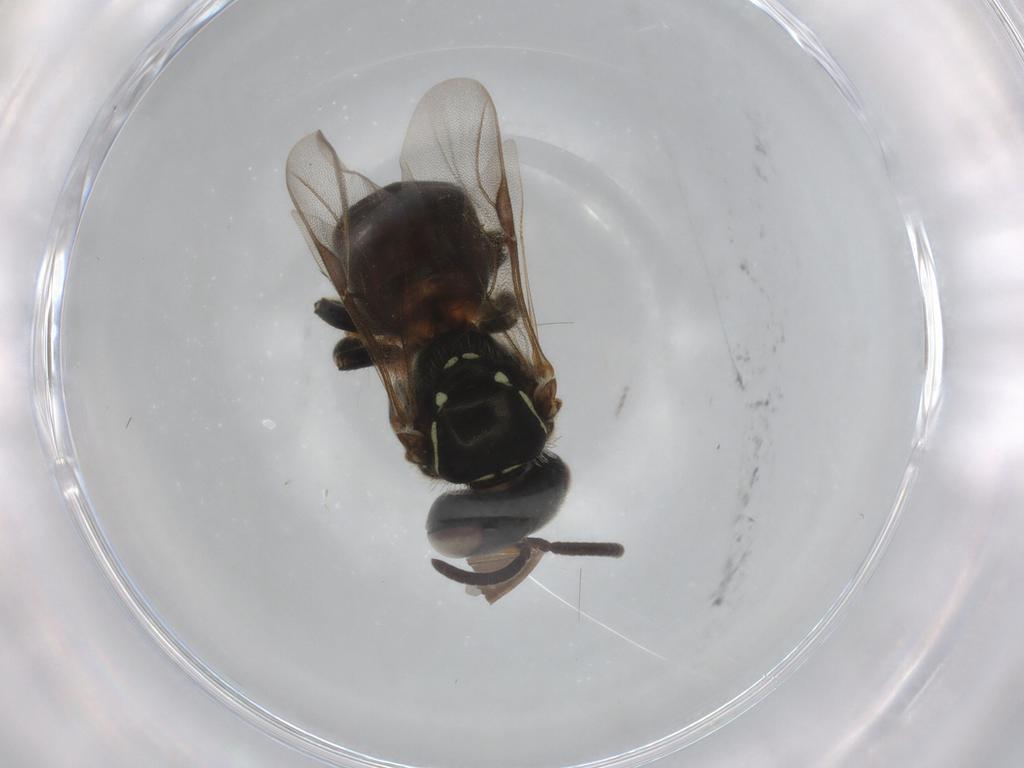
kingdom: Animalia
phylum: Arthropoda
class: Insecta
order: Hymenoptera
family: Apidae
